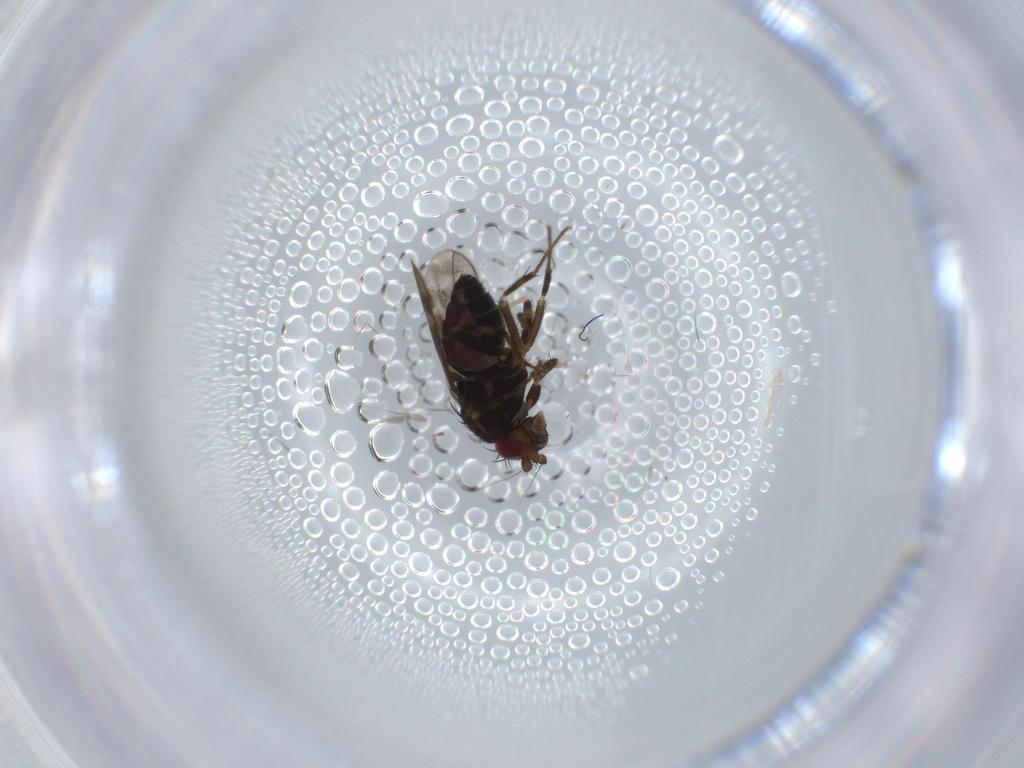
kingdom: Animalia
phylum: Arthropoda
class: Insecta
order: Diptera
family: Sphaeroceridae
